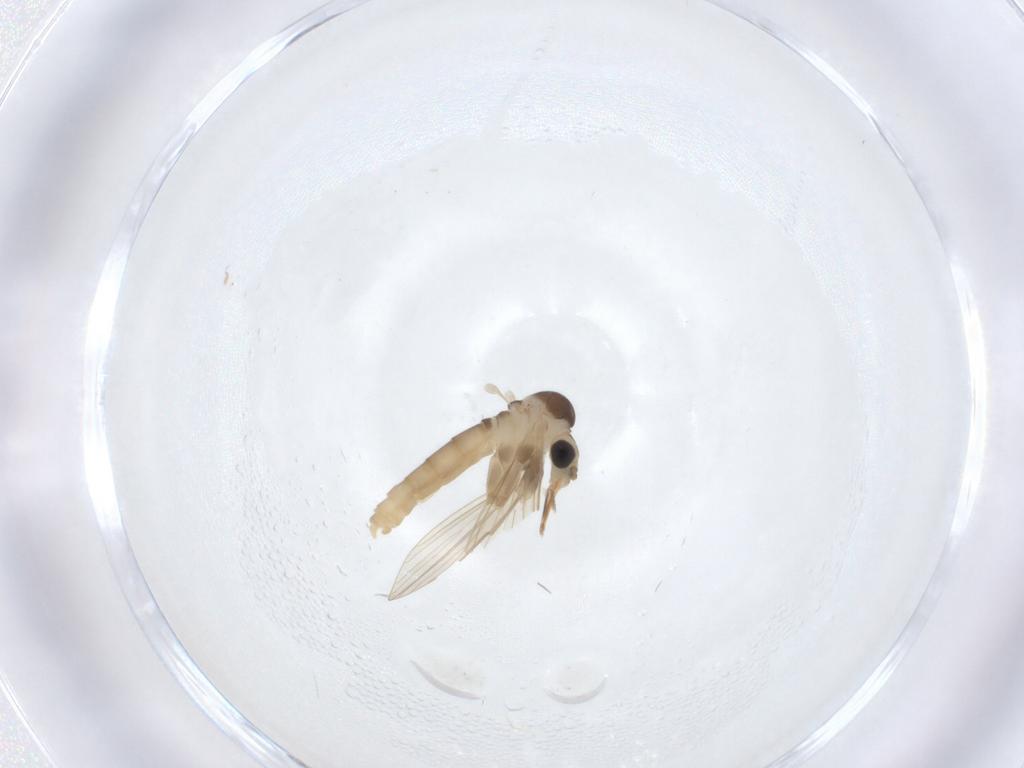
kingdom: Animalia
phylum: Arthropoda
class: Insecta
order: Diptera
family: Psychodidae
